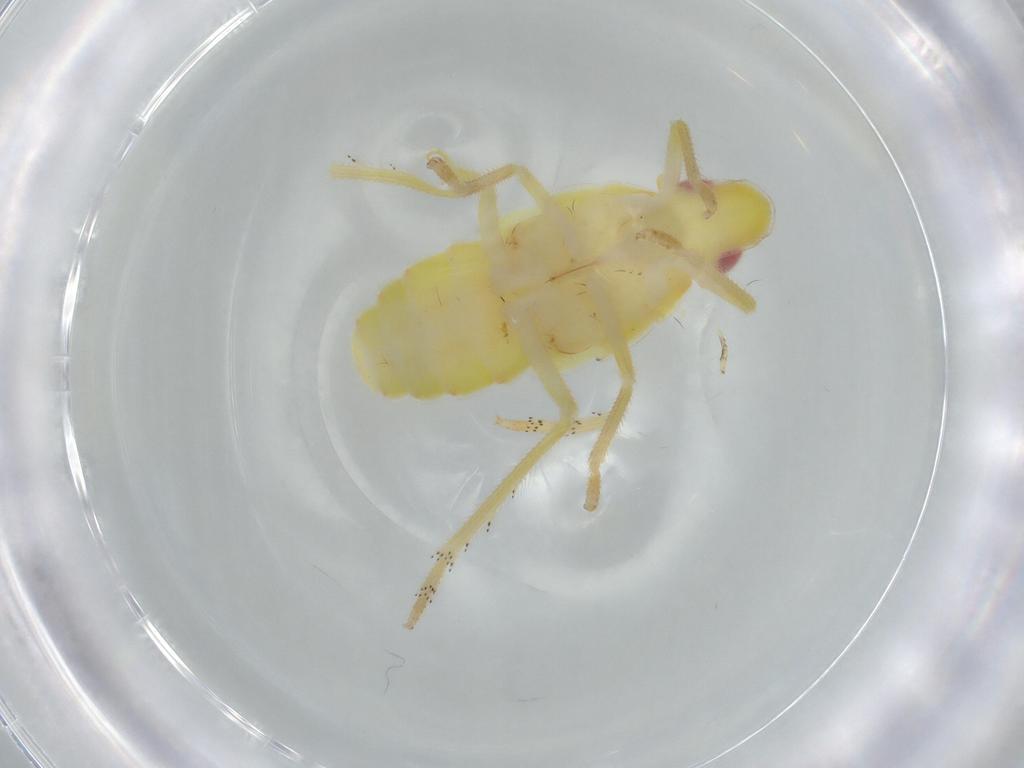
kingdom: Animalia
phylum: Arthropoda
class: Insecta
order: Hemiptera
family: Tropiduchidae
